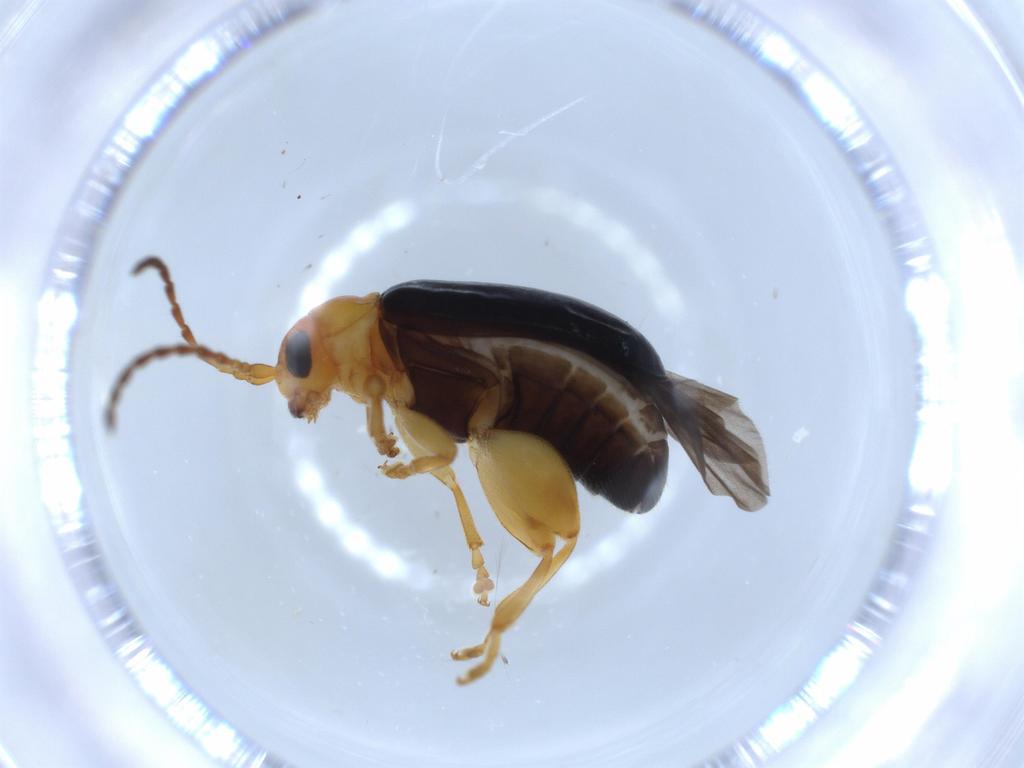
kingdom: Animalia
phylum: Arthropoda
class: Insecta
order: Coleoptera
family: Chrysomelidae
